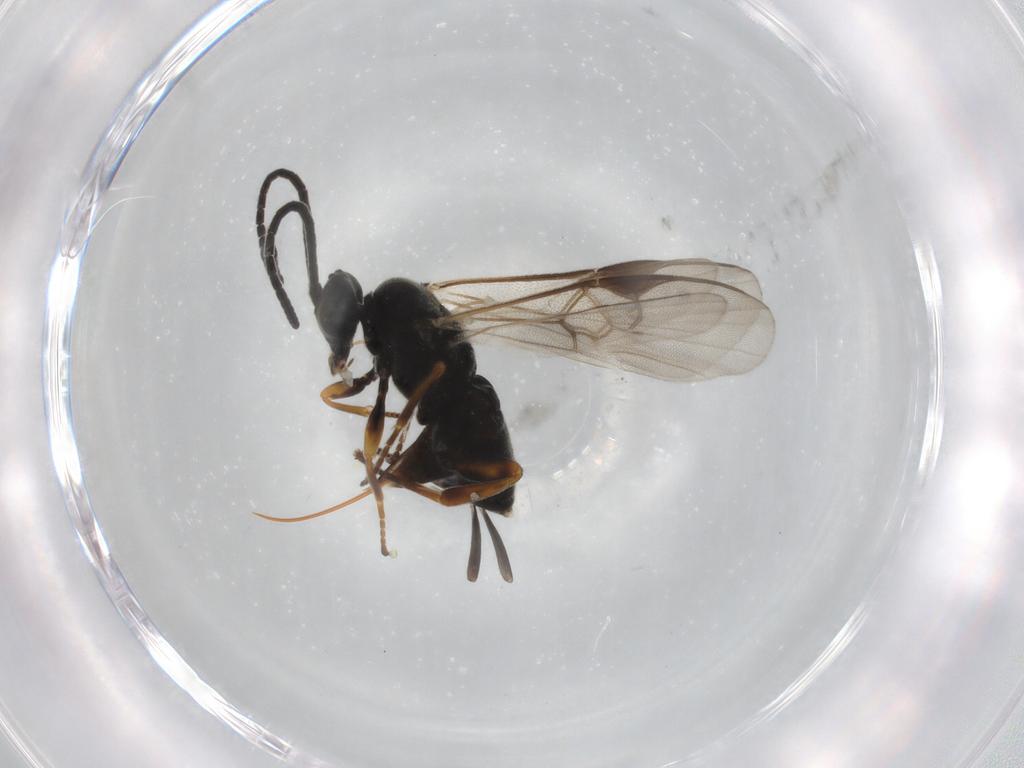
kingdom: Animalia
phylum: Arthropoda
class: Insecta
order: Hymenoptera
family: Braconidae
